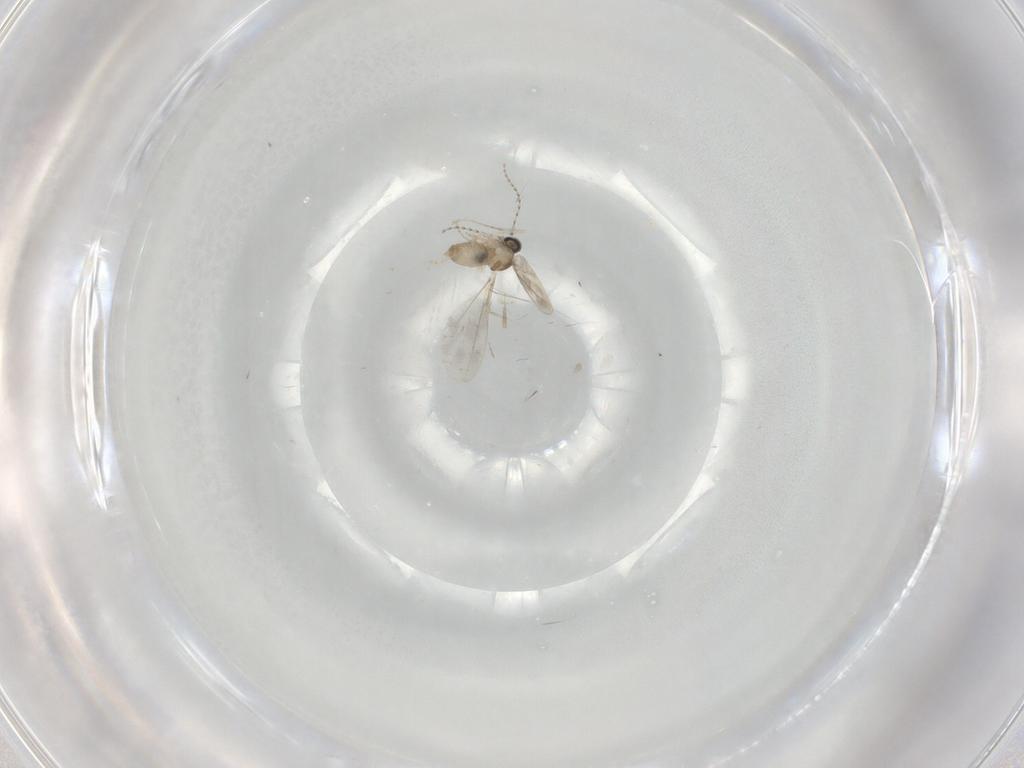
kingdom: Animalia
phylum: Arthropoda
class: Insecta
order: Diptera
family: Cecidomyiidae
